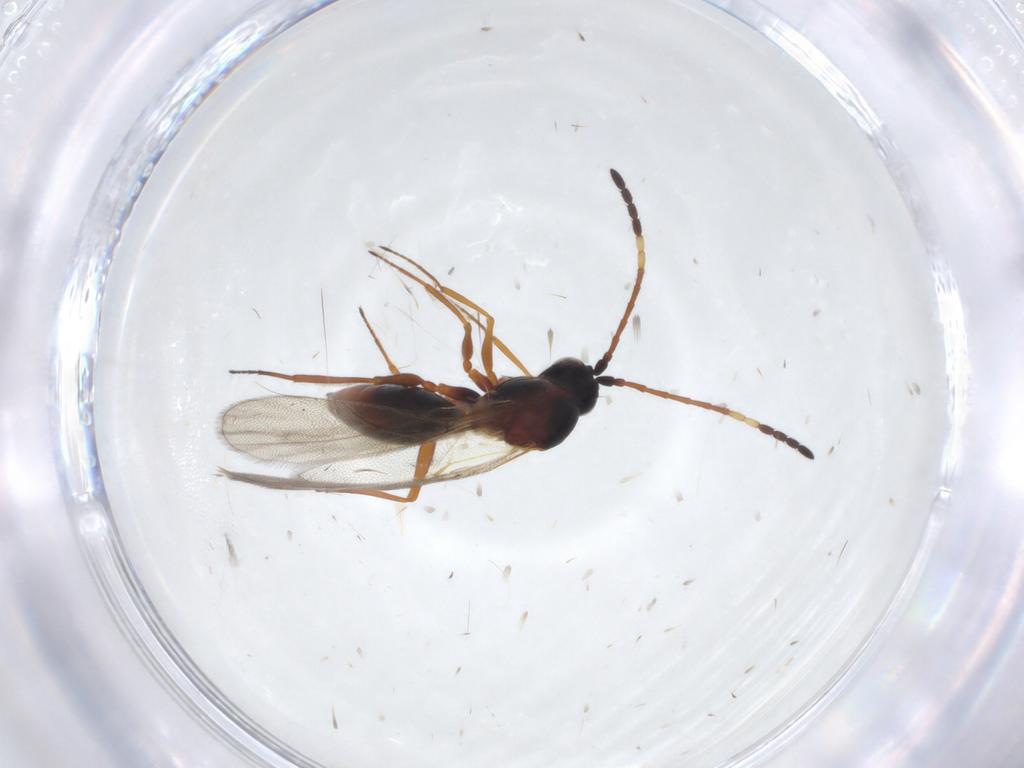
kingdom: Animalia
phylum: Arthropoda
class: Insecta
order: Hymenoptera
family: Figitidae
